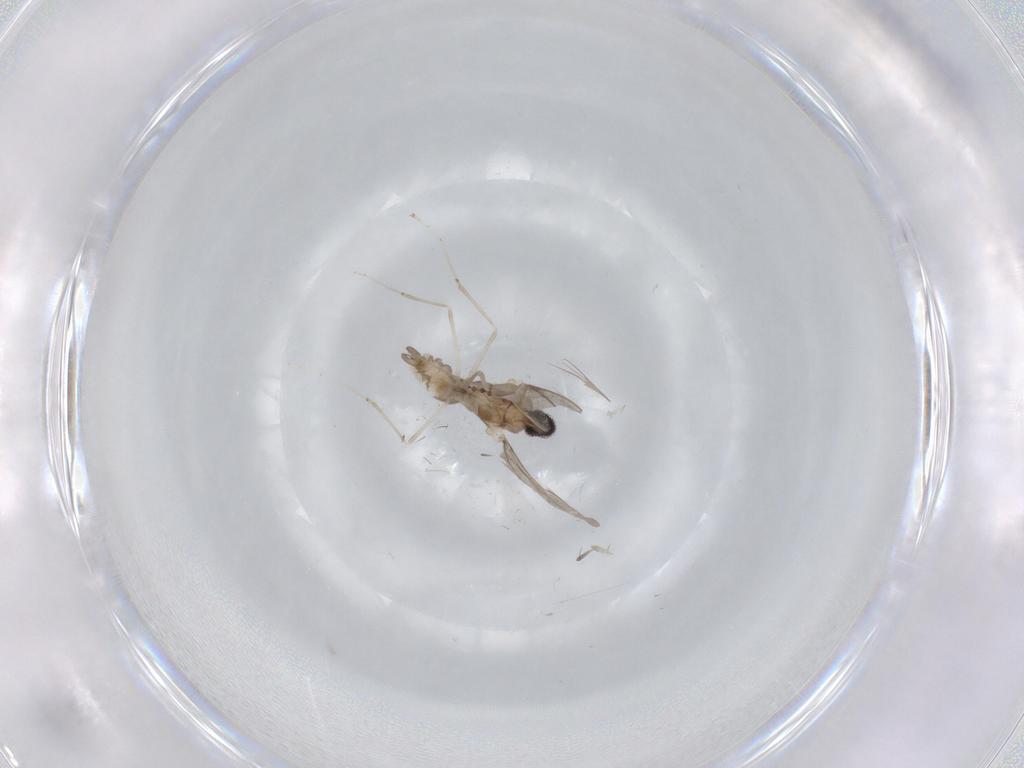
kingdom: Animalia
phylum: Arthropoda
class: Insecta
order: Diptera
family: Cecidomyiidae
